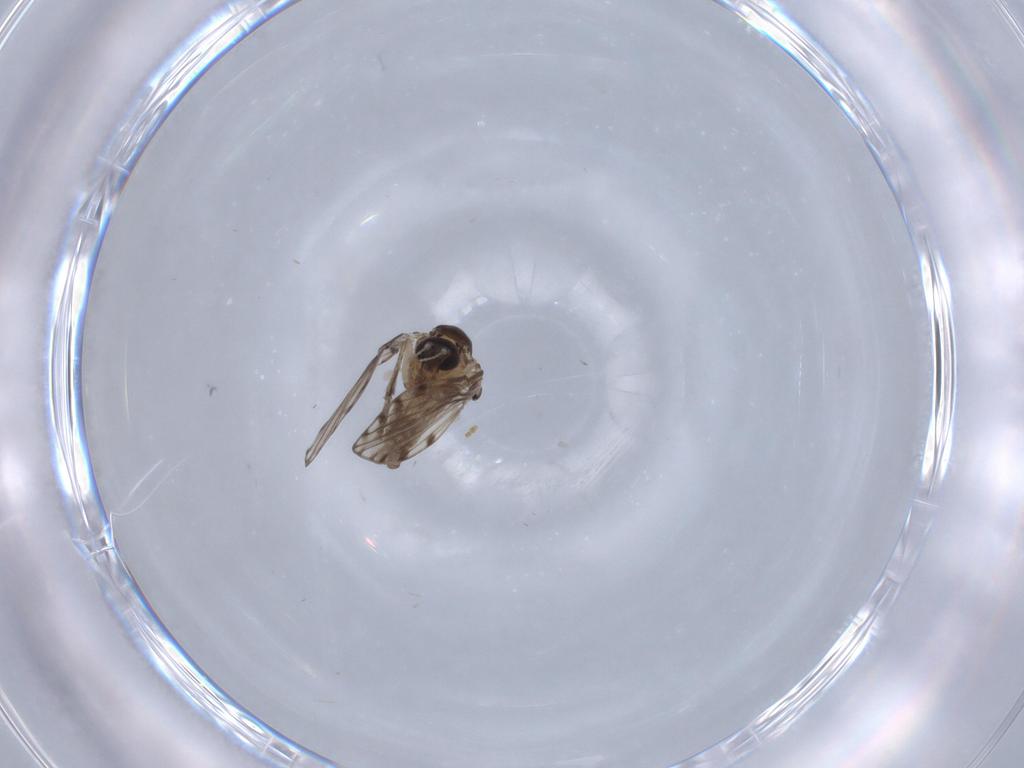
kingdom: Animalia
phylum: Arthropoda
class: Insecta
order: Diptera
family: Psychodidae
